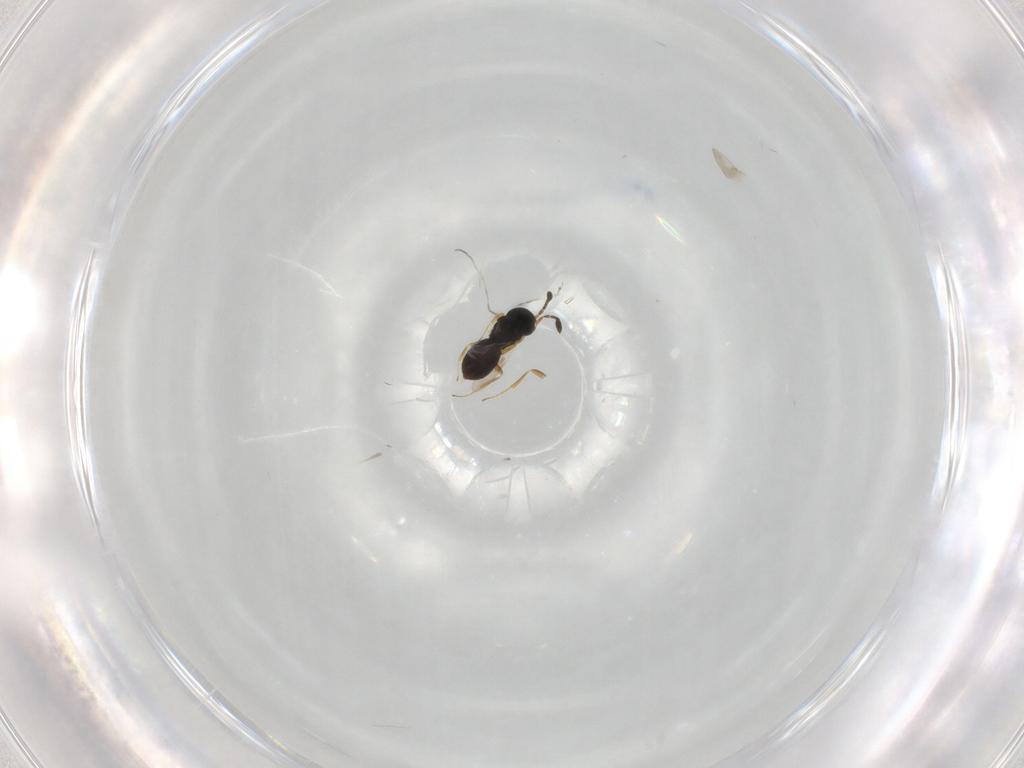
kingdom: Animalia
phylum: Arthropoda
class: Insecta
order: Hymenoptera
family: Scelionidae
